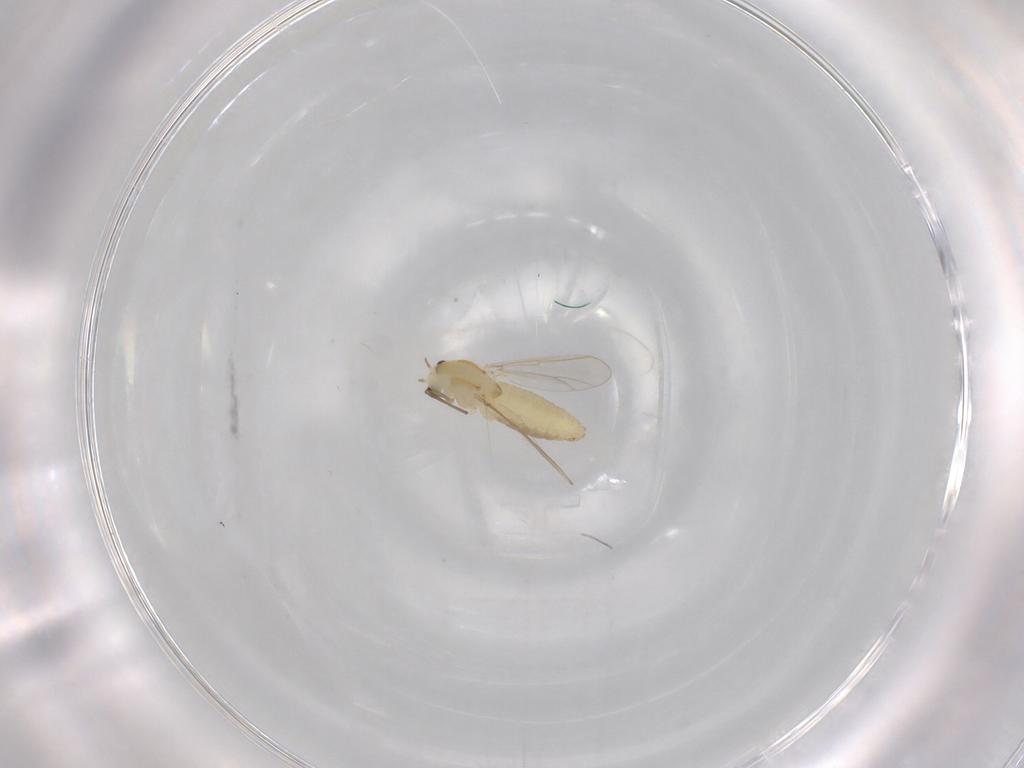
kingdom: Animalia
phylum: Arthropoda
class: Insecta
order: Diptera
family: Chironomidae
